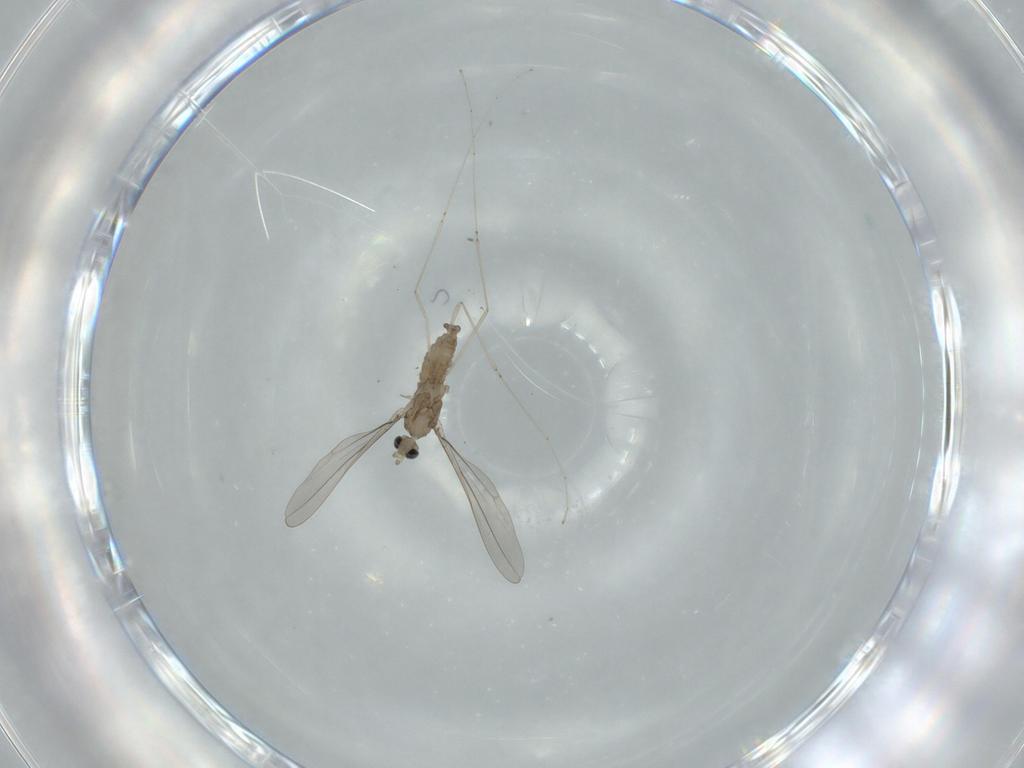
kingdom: Animalia
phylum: Arthropoda
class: Insecta
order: Diptera
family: Cecidomyiidae
